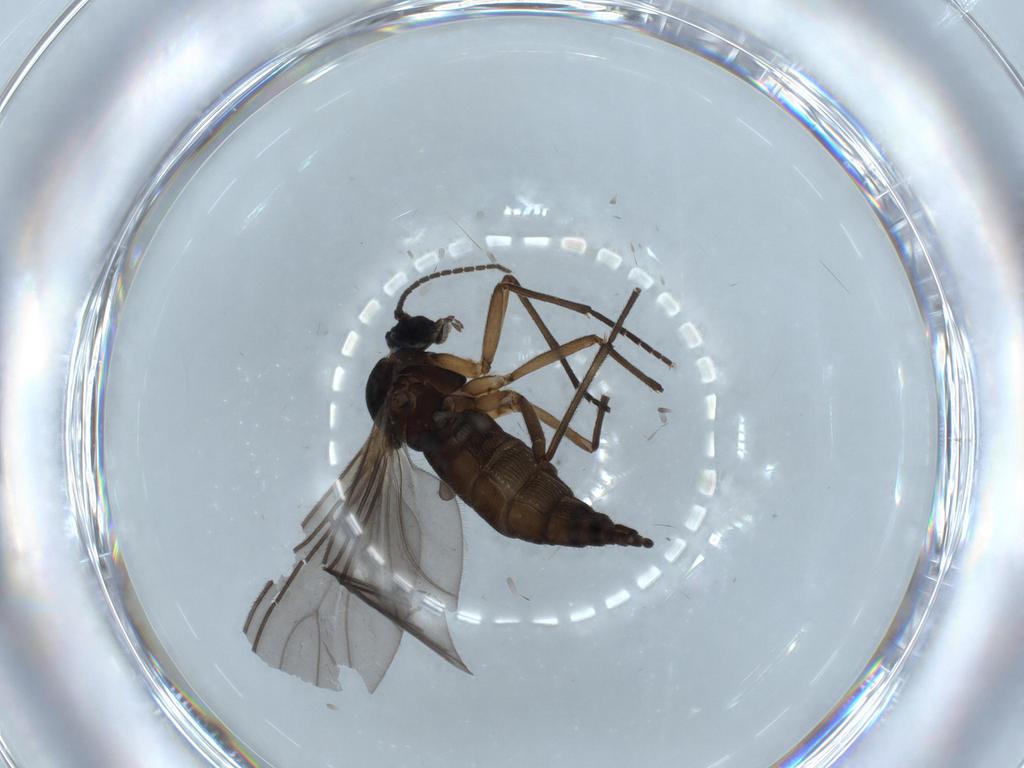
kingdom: Animalia
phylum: Arthropoda
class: Insecta
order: Diptera
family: Sciaridae
